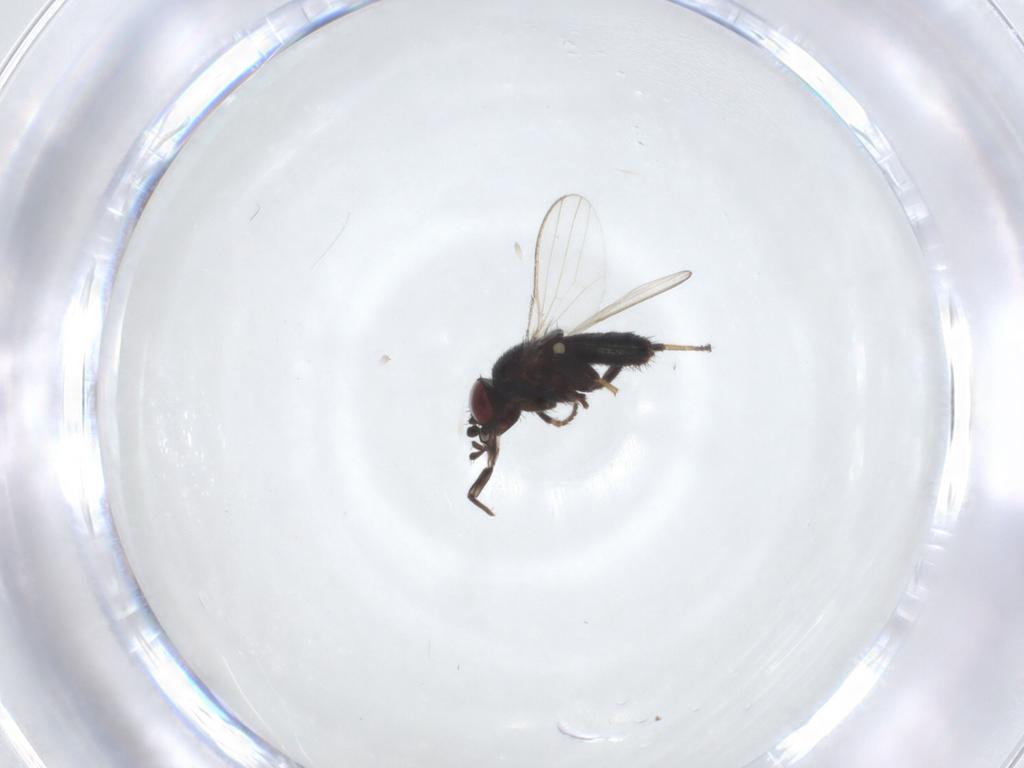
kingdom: Animalia
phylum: Arthropoda
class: Insecta
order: Diptera
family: Milichiidae
